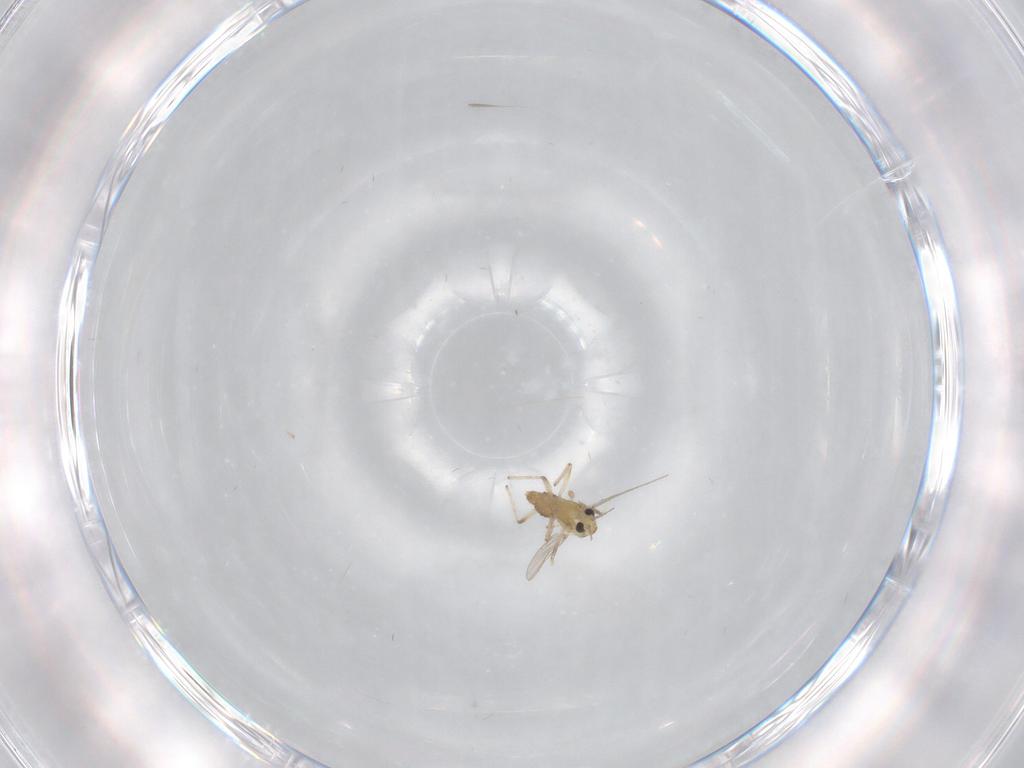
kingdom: Animalia
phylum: Arthropoda
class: Insecta
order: Diptera
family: Chironomidae
